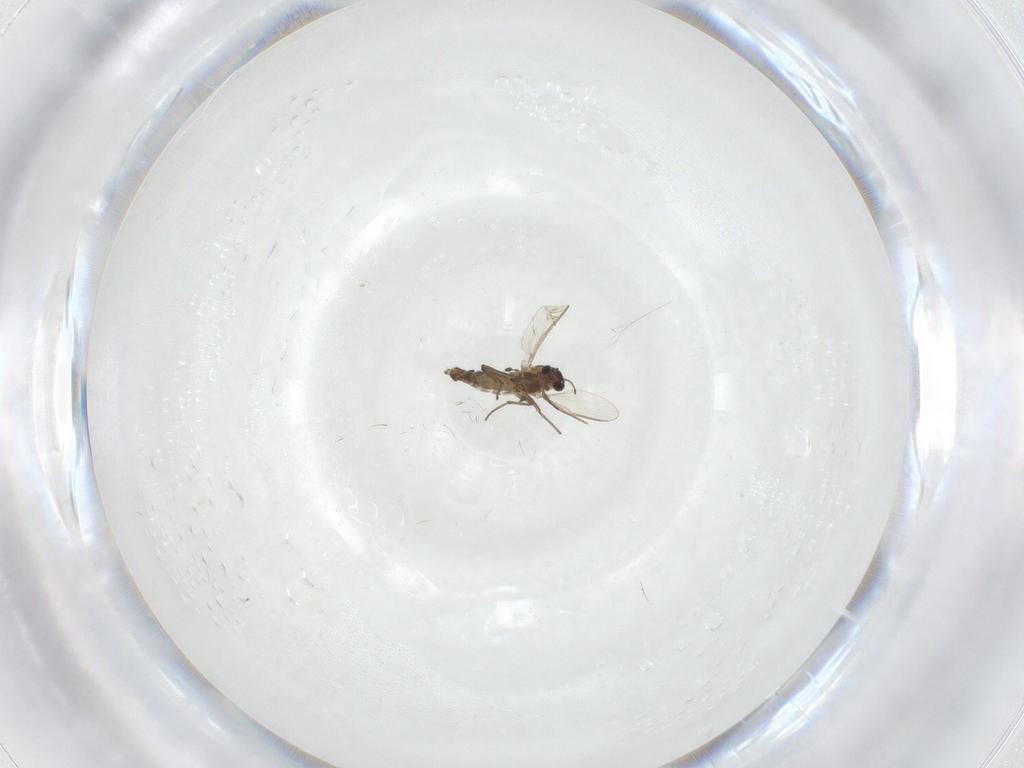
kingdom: Animalia
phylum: Arthropoda
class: Insecta
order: Diptera
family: Chironomidae
